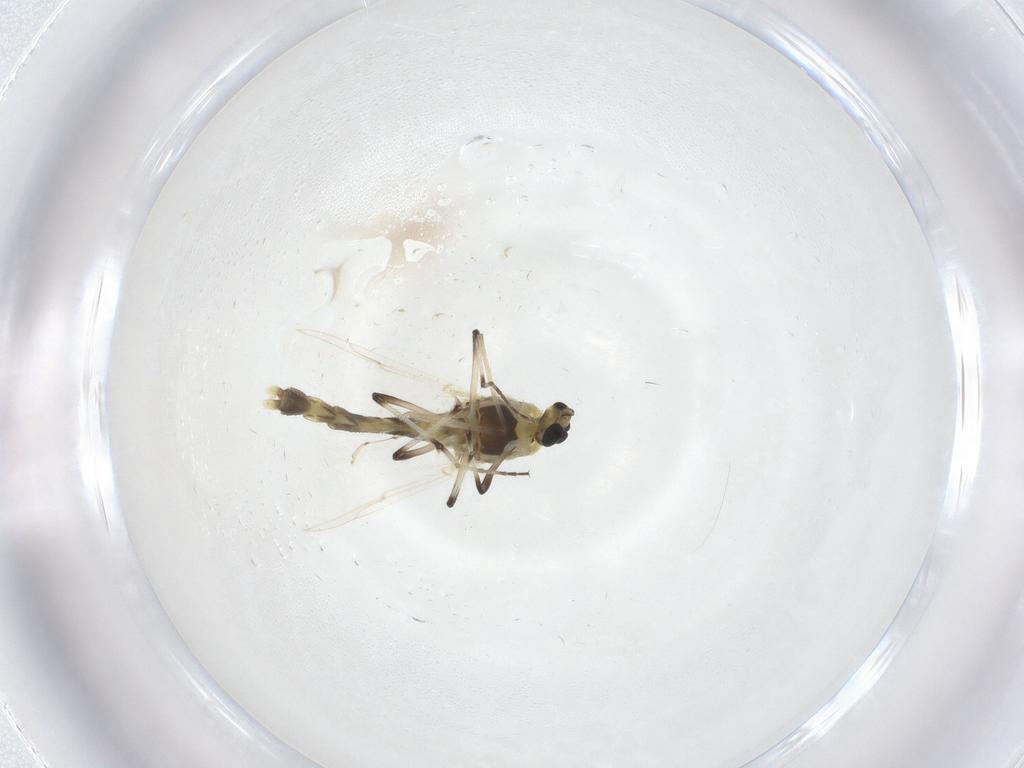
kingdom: Animalia
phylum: Arthropoda
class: Insecta
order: Diptera
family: Chironomidae
